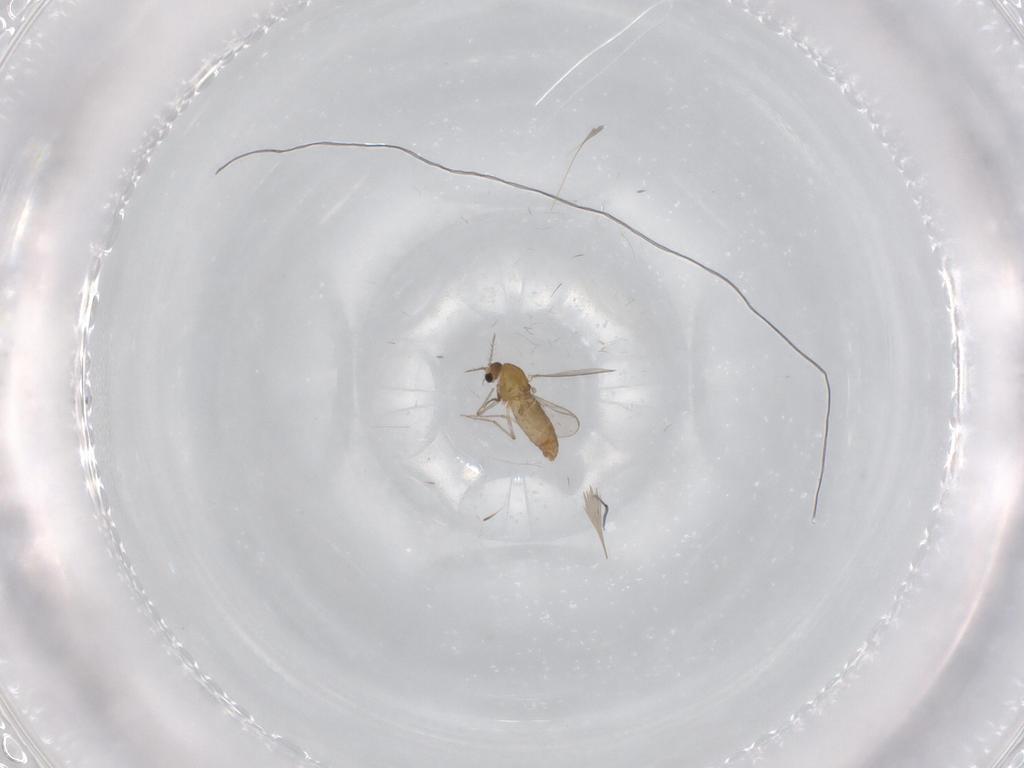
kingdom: Animalia
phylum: Arthropoda
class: Insecta
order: Diptera
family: Chironomidae
